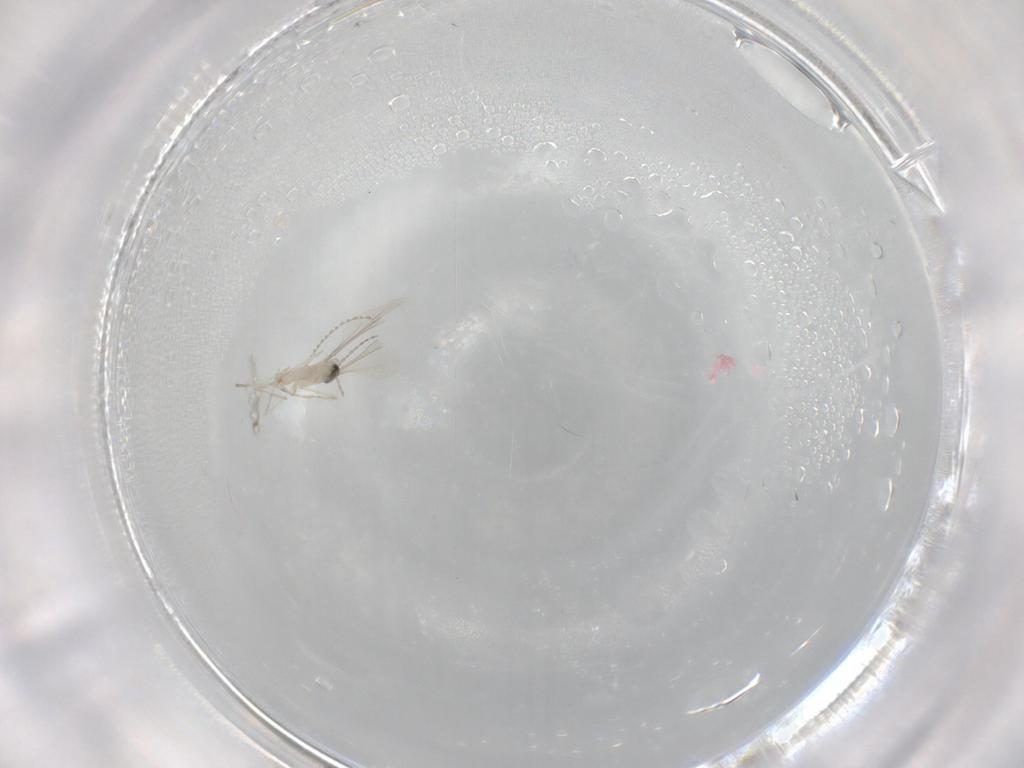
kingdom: Animalia
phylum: Arthropoda
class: Insecta
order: Diptera
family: Cecidomyiidae
